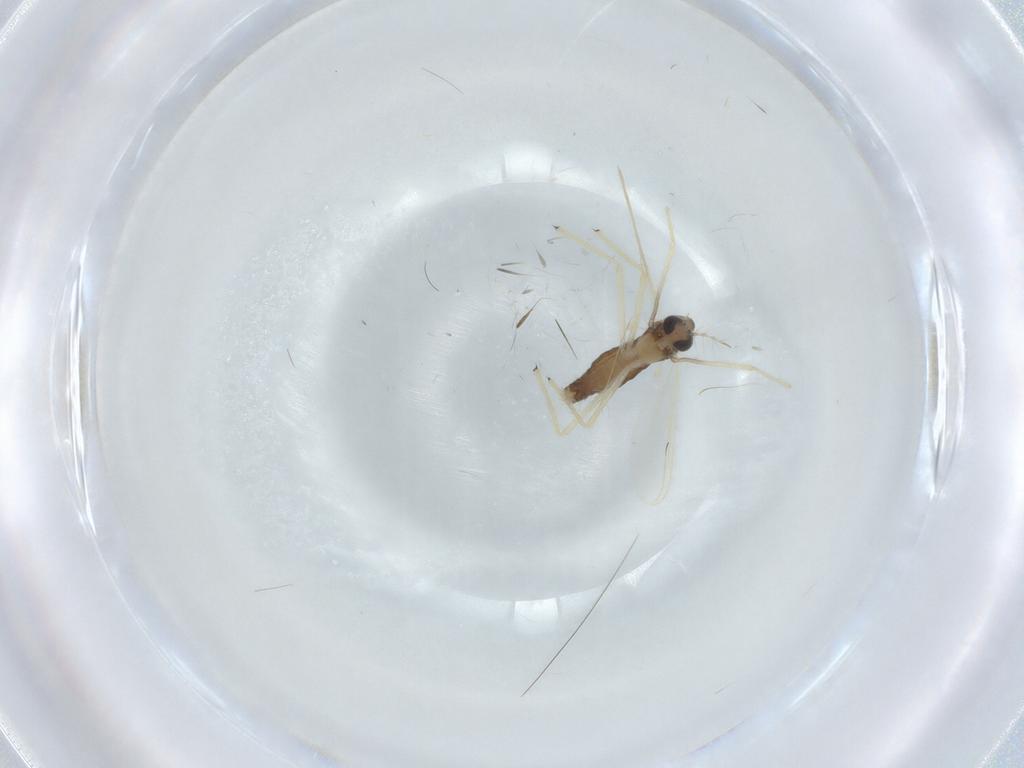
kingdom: Animalia
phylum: Arthropoda
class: Insecta
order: Diptera
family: Chironomidae
